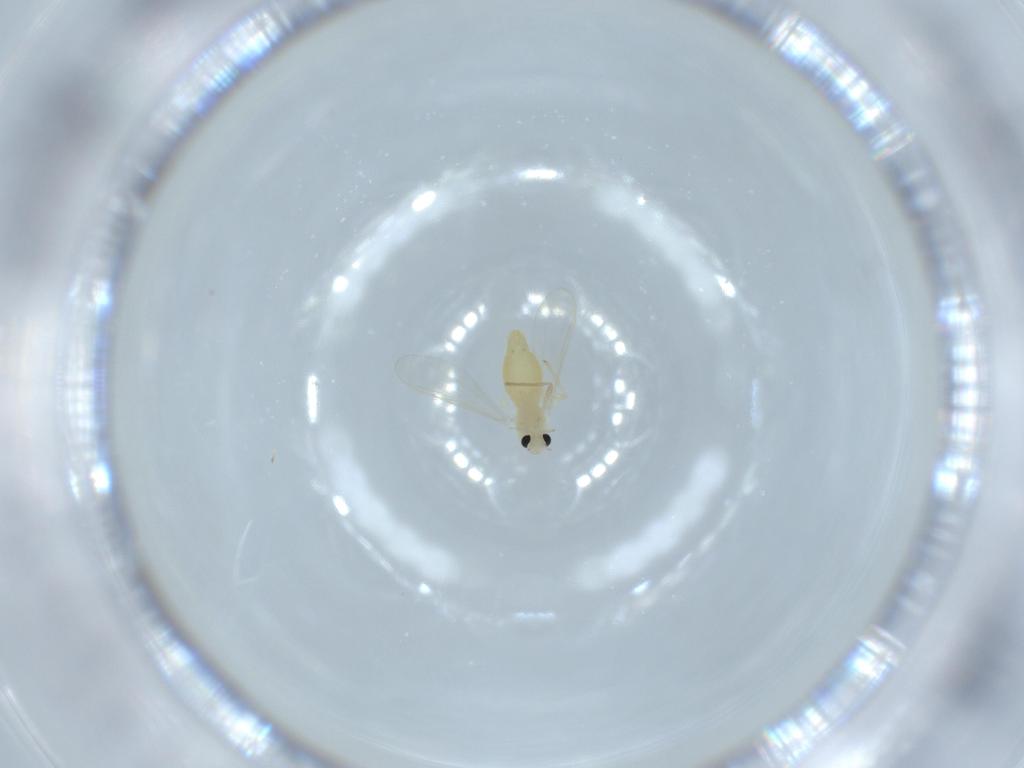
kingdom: Animalia
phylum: Arthropoda
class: Insecta
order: Diptera
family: Chironomidae
